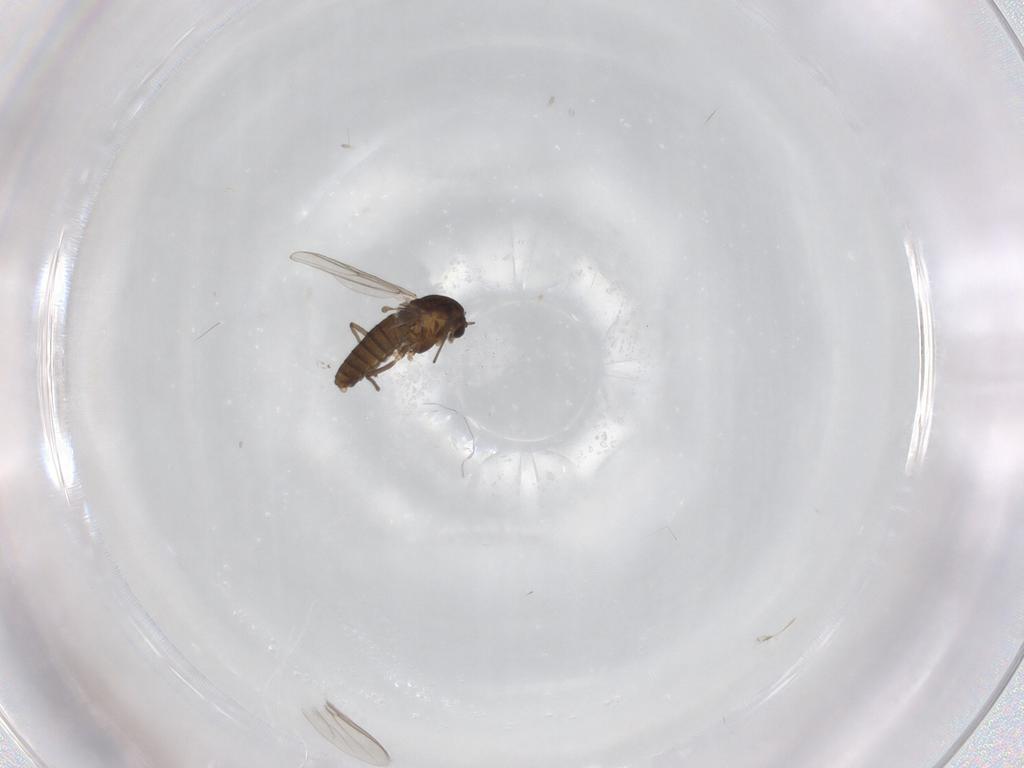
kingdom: Animalia
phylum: Arthropoda
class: Insecta
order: Diptera
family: Chironomidae
